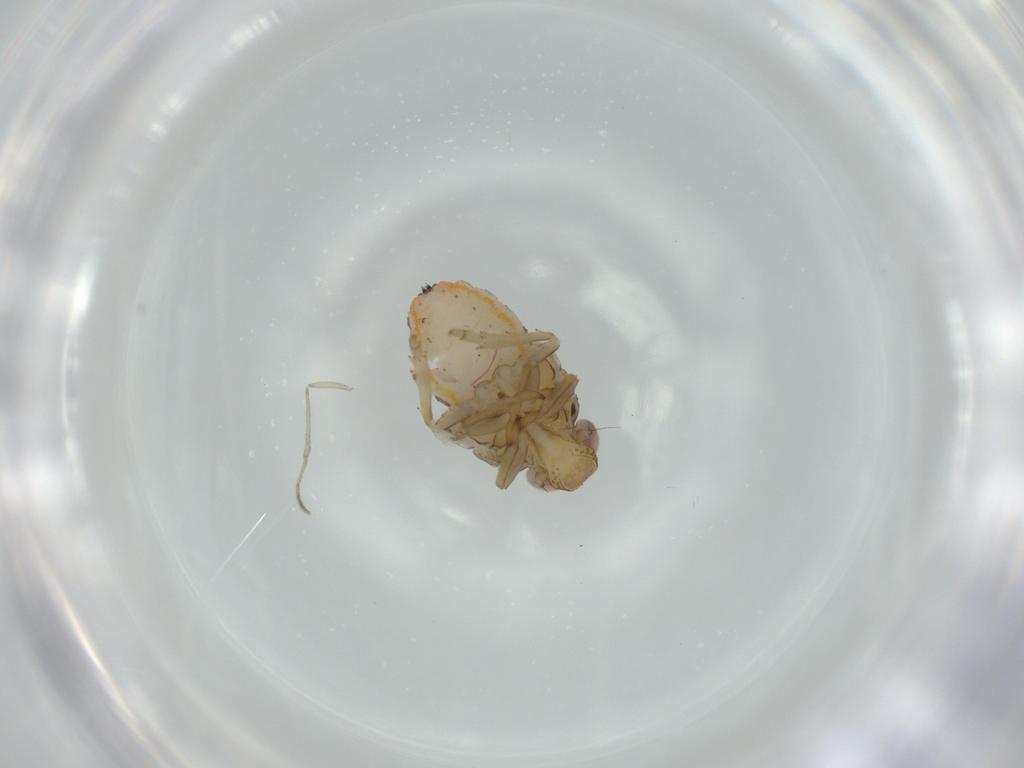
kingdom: Animalia
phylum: Arthropoda
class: Insecta
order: Hemiptera
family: Issidae
